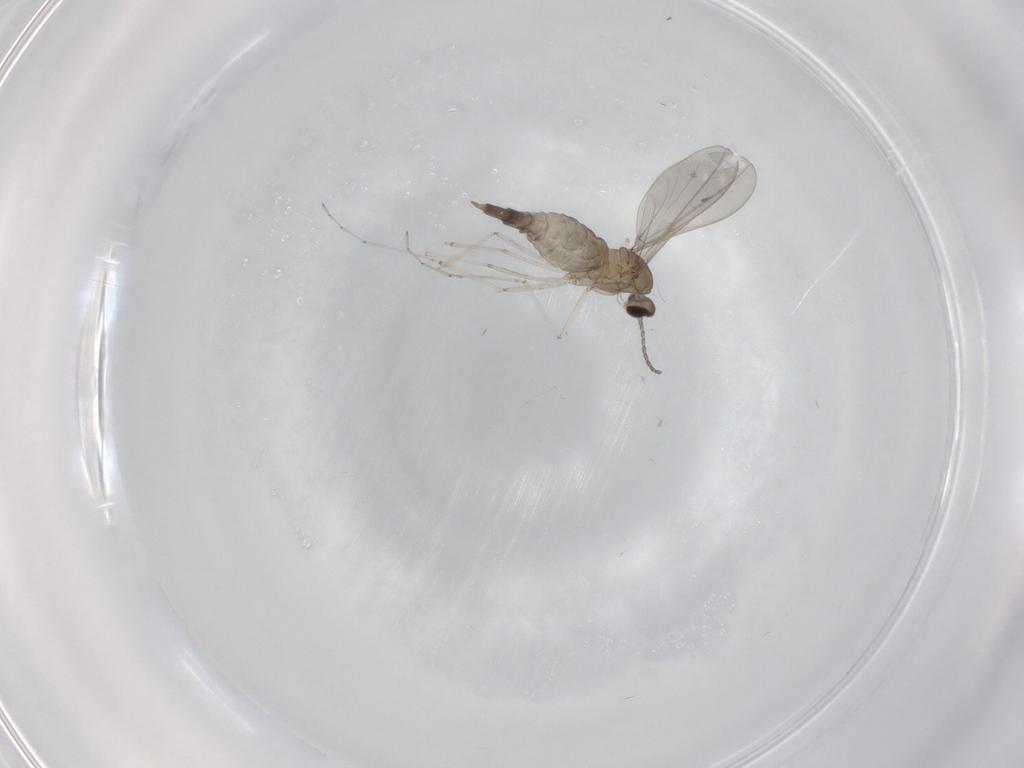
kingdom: Animalia
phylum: Arthropoda
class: Insecta
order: Diptera
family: Cecidomyiidae
